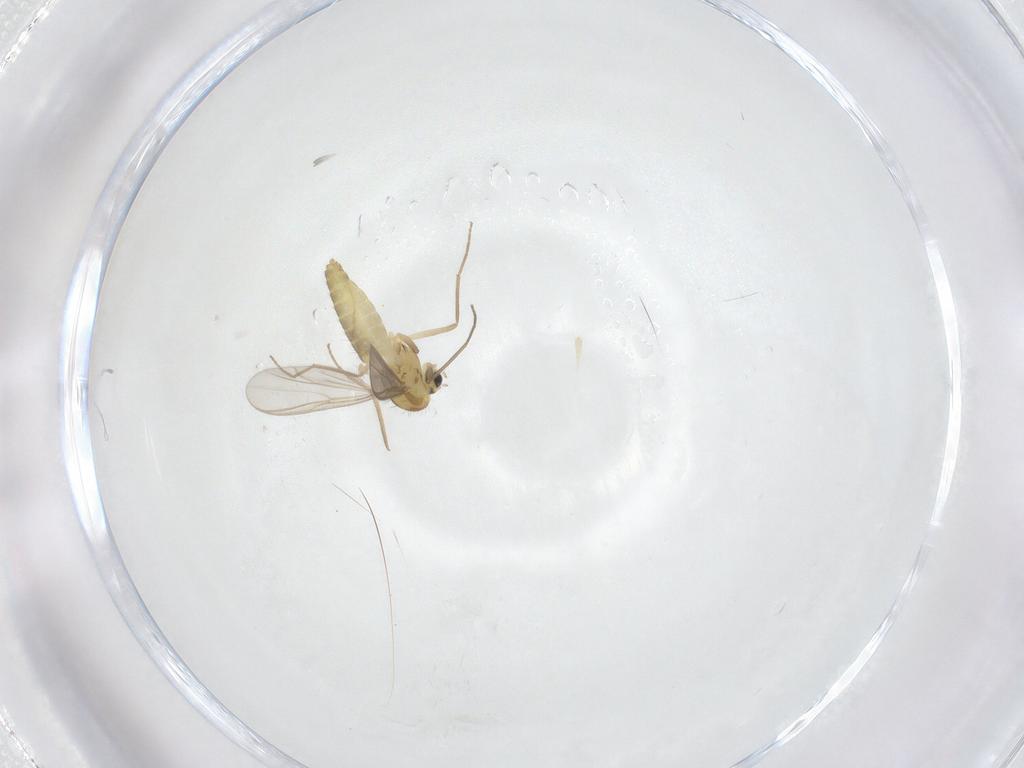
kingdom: Animalia
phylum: Arthropoda
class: Insecta
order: Diptera
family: Chironomidae
